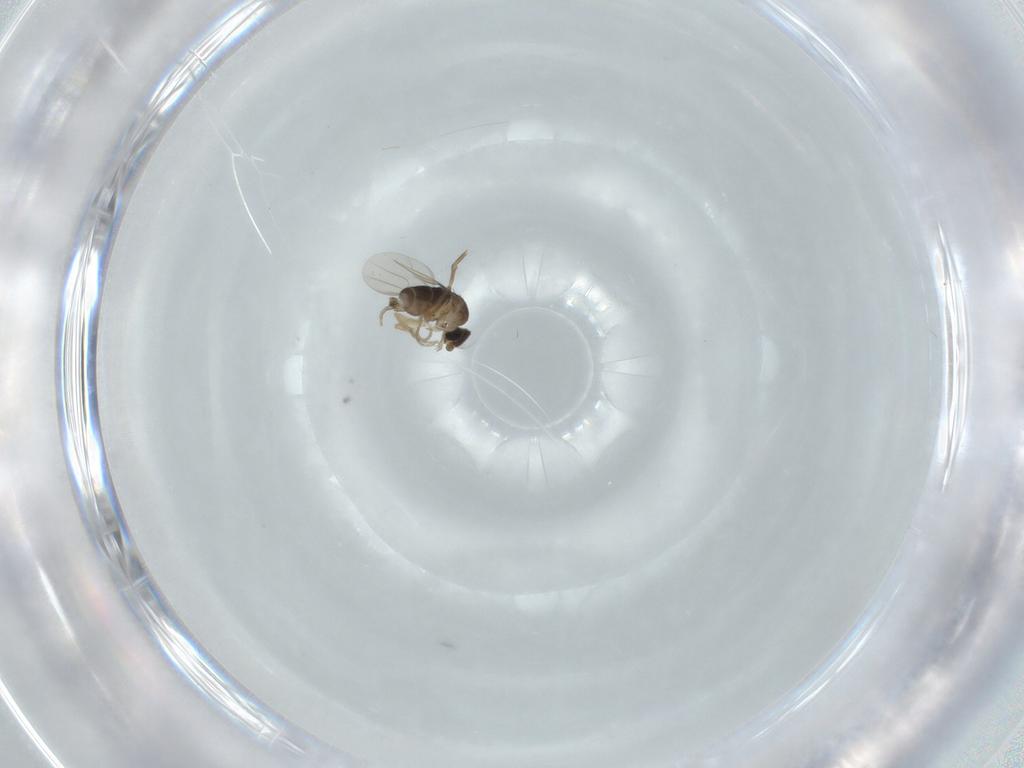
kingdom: Animalia
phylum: Arthropoda
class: Insecta
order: Diptera
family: Phoridae
